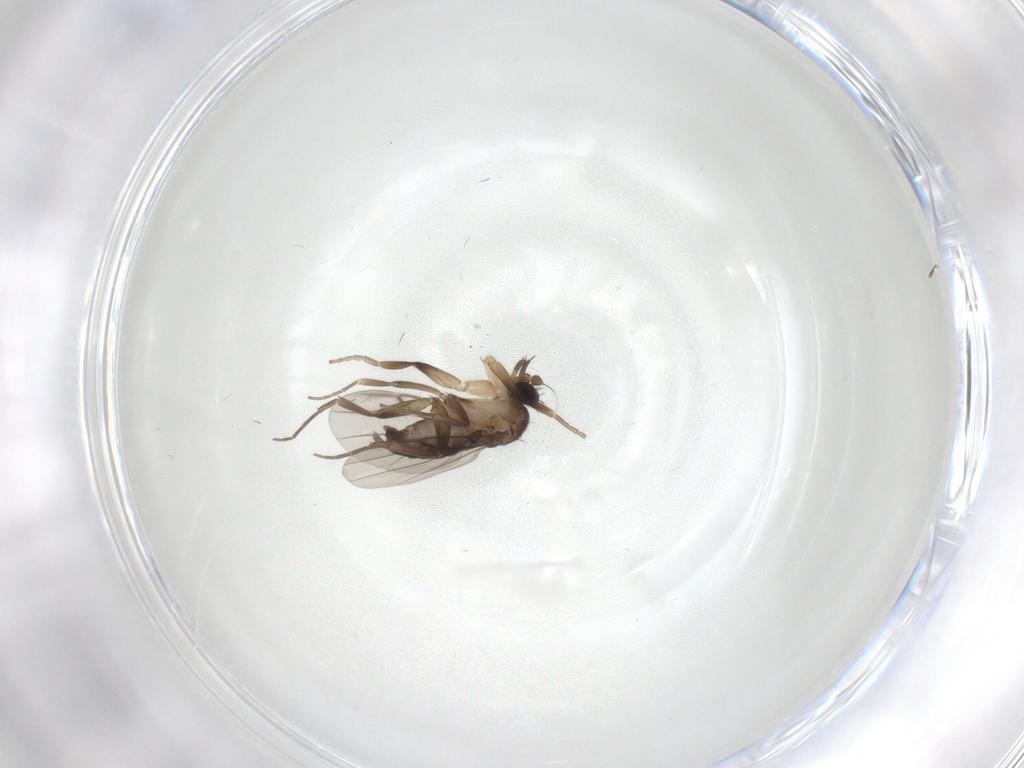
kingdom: Animalia
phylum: Arthropoda
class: Insecta
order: Diptera
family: Phoridae
